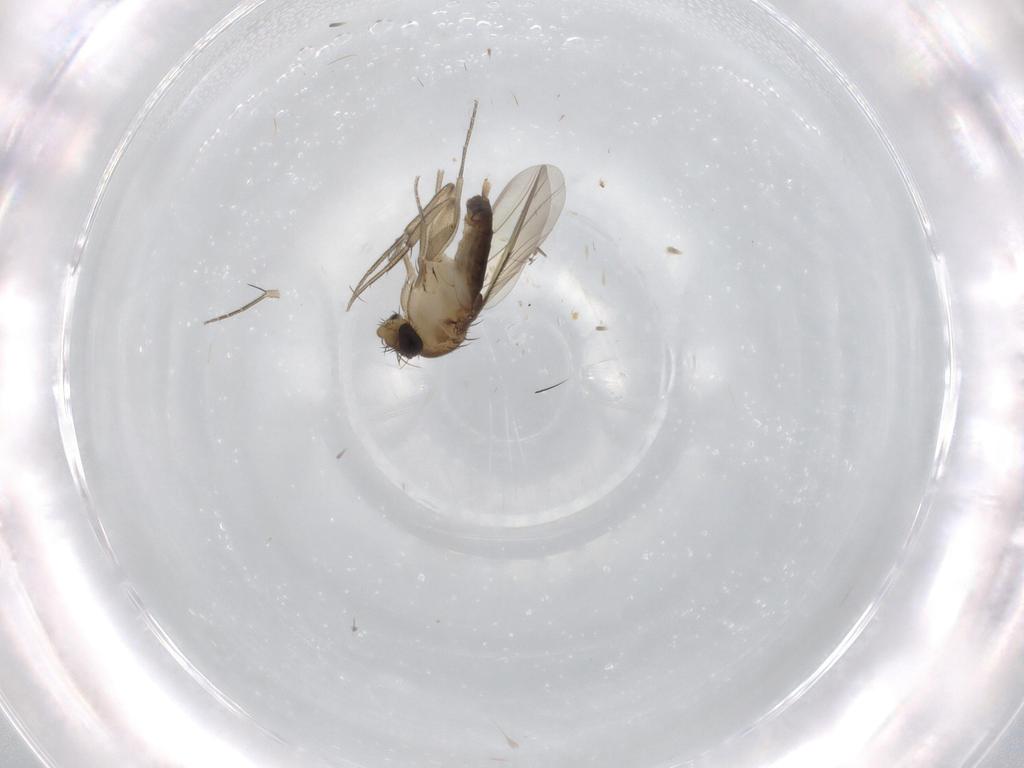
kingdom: Animalia
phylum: Arthropoda
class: Insecta
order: Diptera
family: Phoridae
